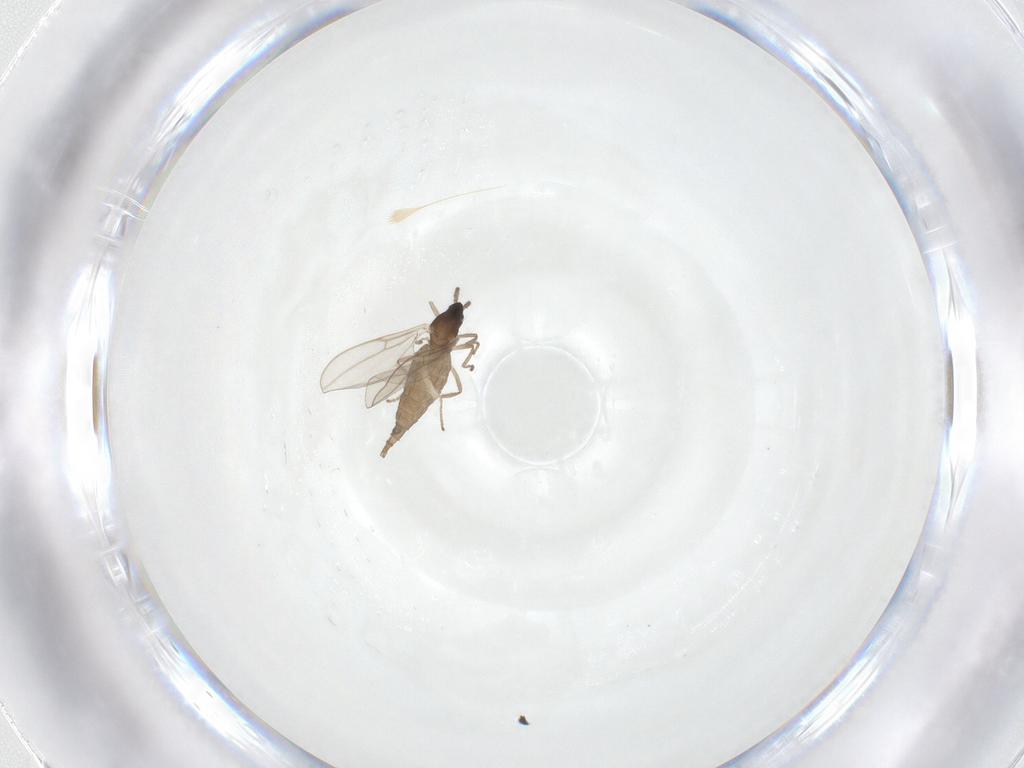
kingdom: Animalia
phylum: Arthropoda
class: Insecta
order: Diptera
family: Cecidomyiidae
